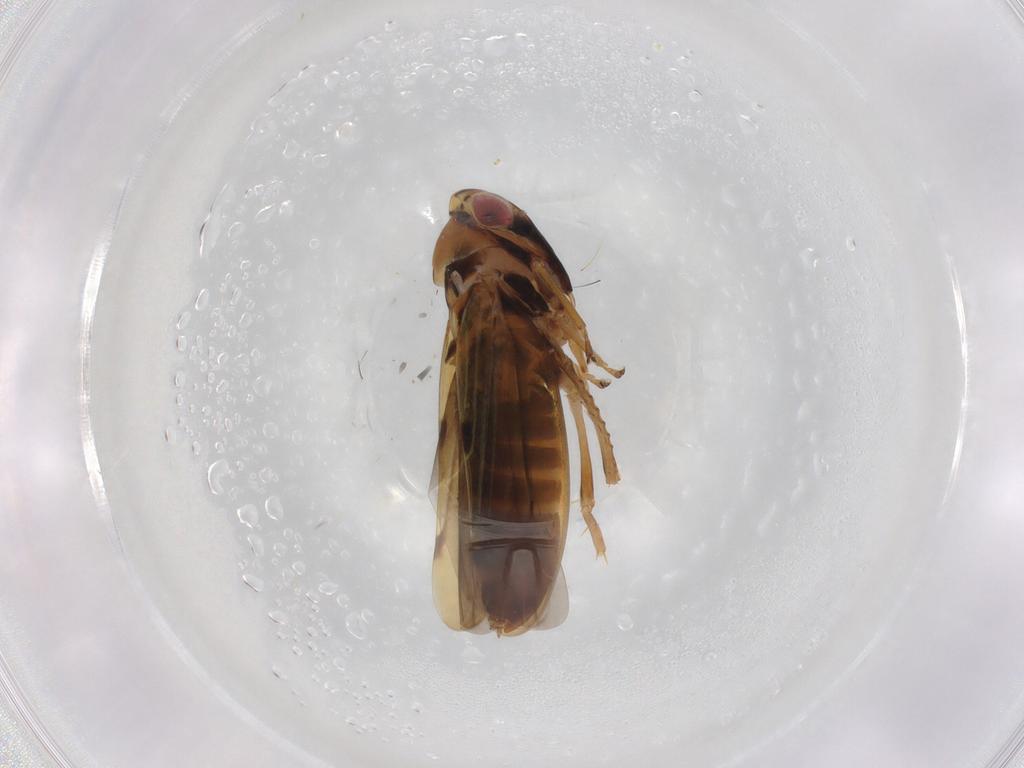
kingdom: Animalia
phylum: Arthropoda
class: Insecta
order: Hemiptera
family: Cicadellidae
